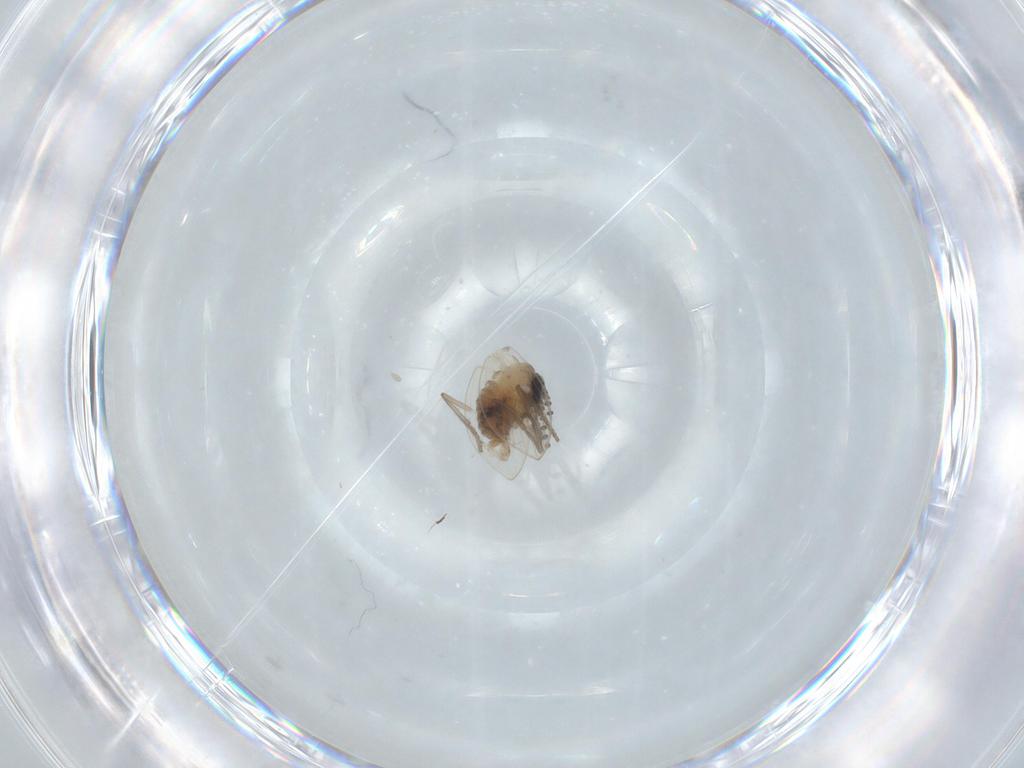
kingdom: Animalia
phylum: Arthropoda
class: Insecta
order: Diptera
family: Psychodidae
